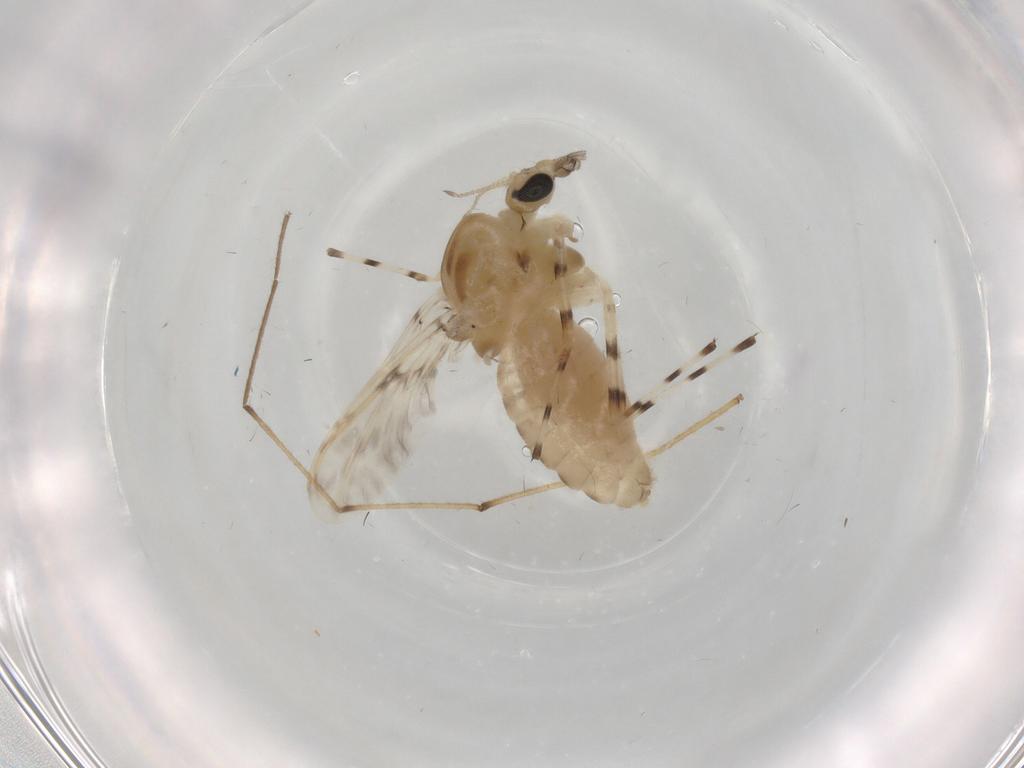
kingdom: Animalia
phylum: Arthropoda
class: Insecta
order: Diptera
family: Chironomidae
